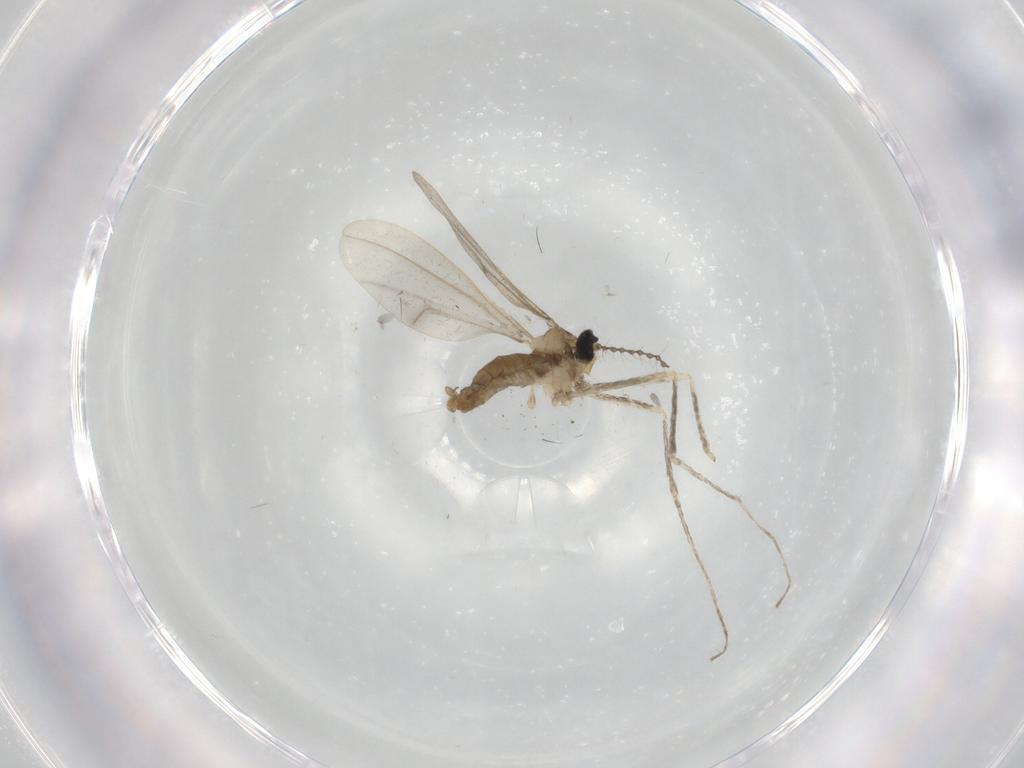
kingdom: Animalia
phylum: Arthropoda
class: Insecta
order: Diptera
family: Cecidomyiidae
